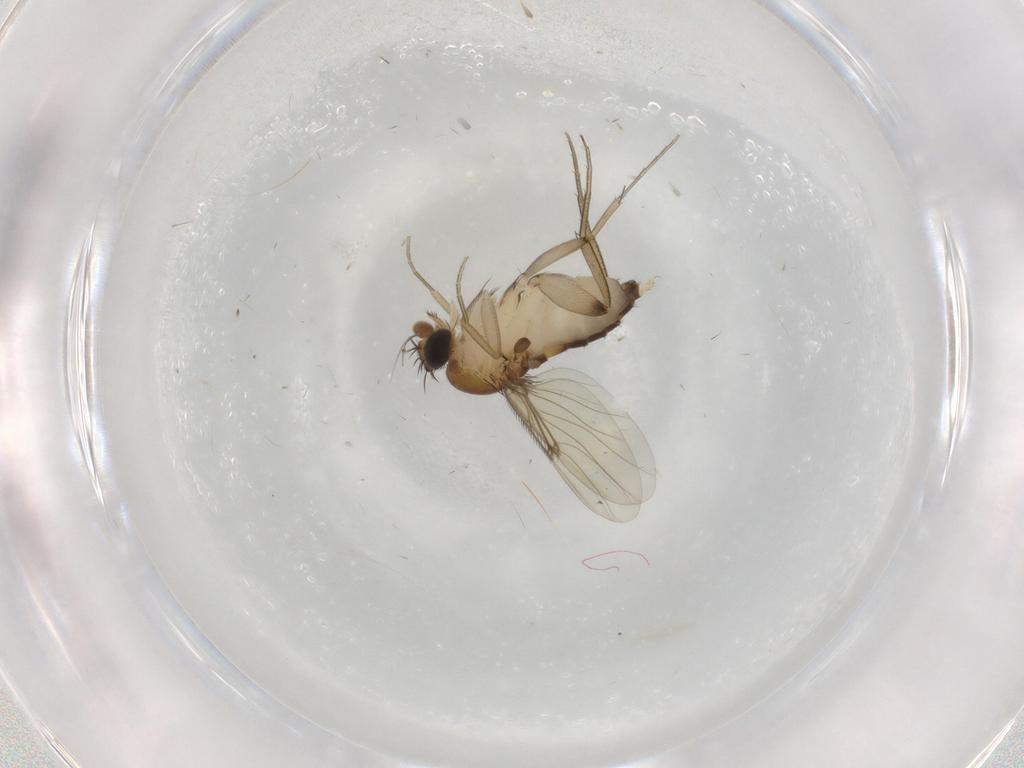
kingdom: Animalia
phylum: Arthropoda
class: Insecta
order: Diptera
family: Phoridae
